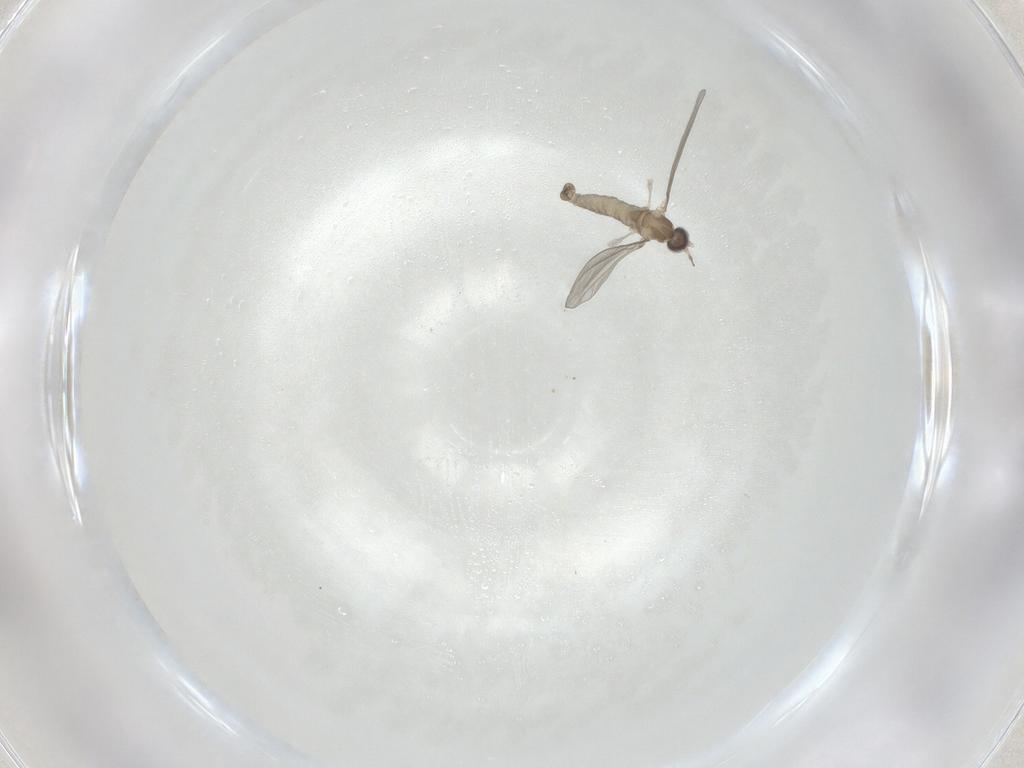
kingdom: Animalia
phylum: Arthropoda
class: Insecta
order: Diptera
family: Cecidomyiidae
